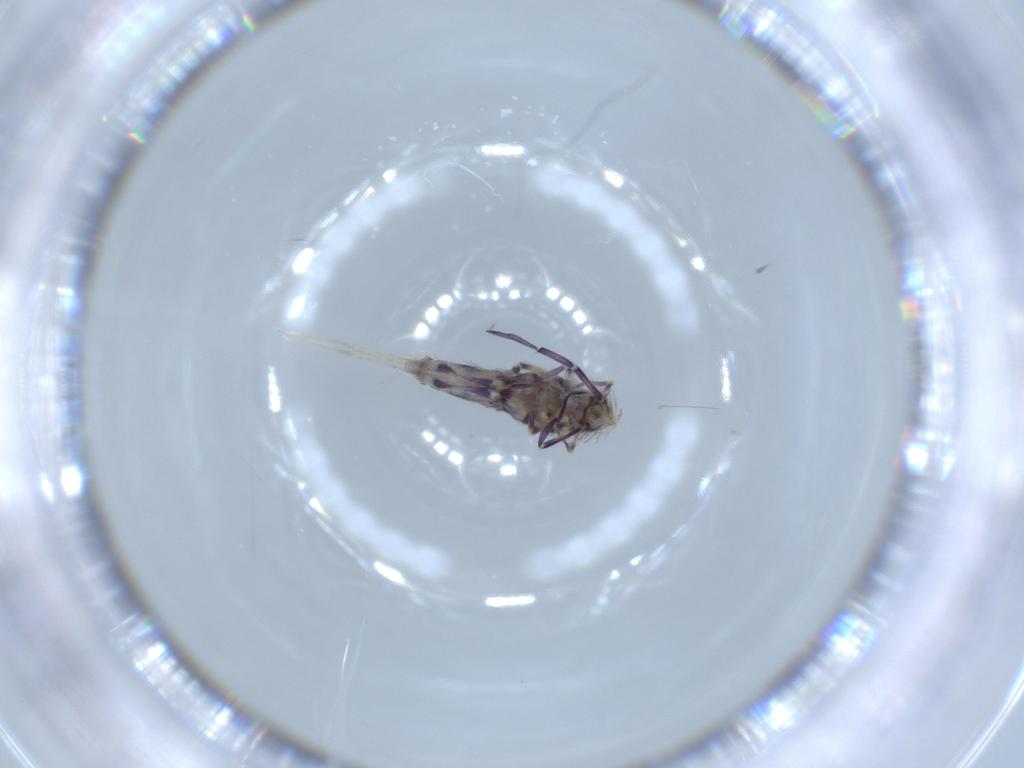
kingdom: Animalia
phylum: Arthropoda
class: Collembola
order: Entomobryomorpha
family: Entomobryidae
